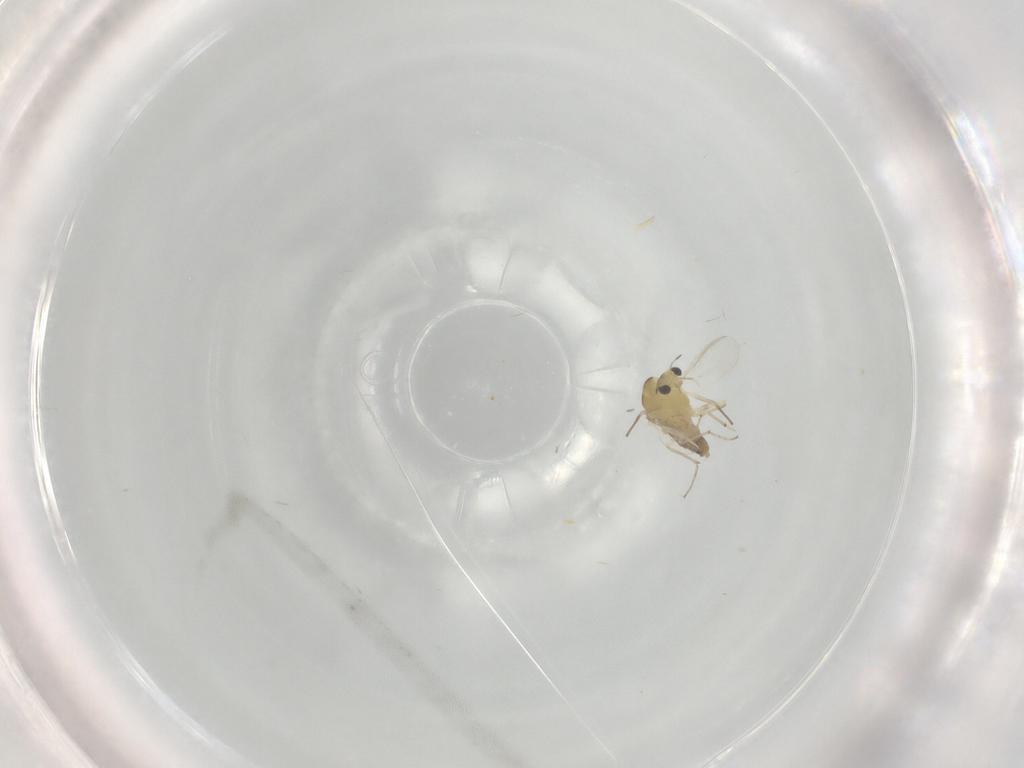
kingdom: Animalia
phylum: Arthropoda
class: Insecta
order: Diptera
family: Chironomidae
